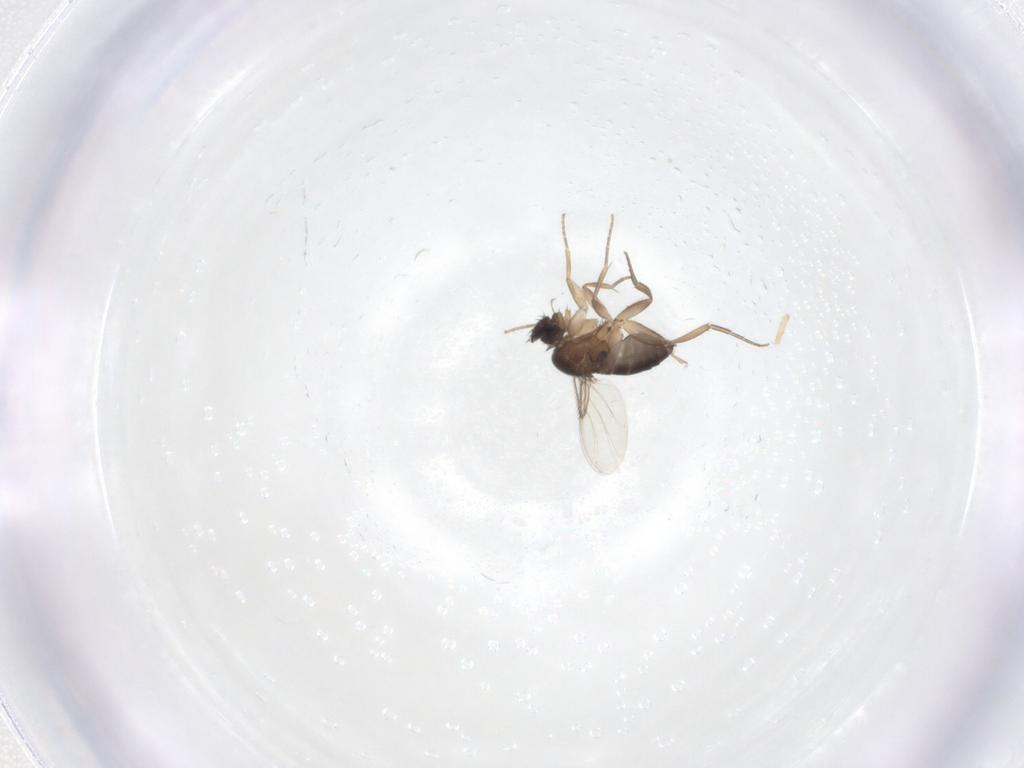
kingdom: Animalia
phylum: Arthropoda
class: Insecta
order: Diptera
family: Phoridae
